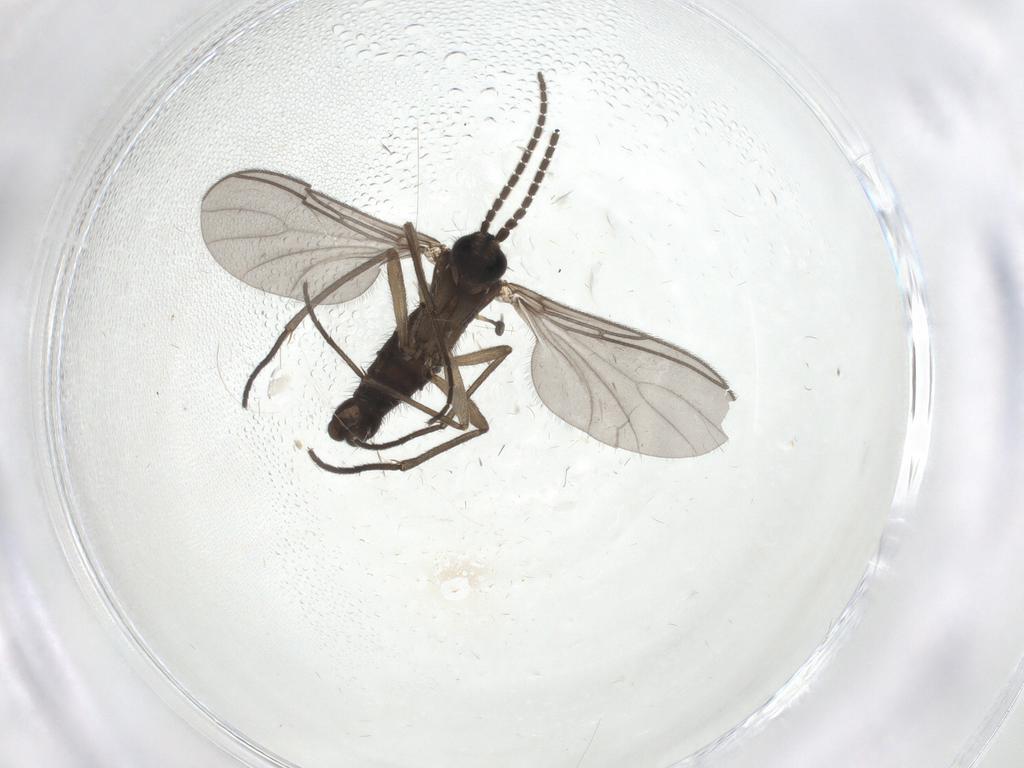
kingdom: Animalia
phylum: Arthropoda
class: Insecta
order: Diptera
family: Sciaridae
